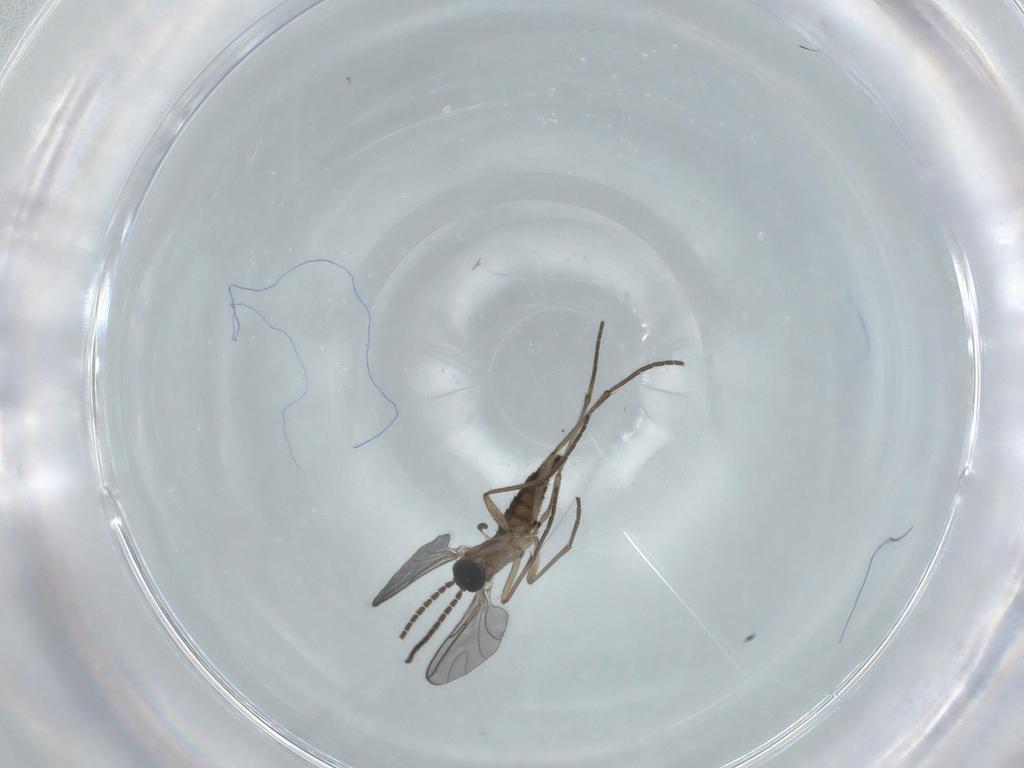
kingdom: Animalia
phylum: Arthropoda
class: Insecta
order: Diptera
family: Sciaridae
